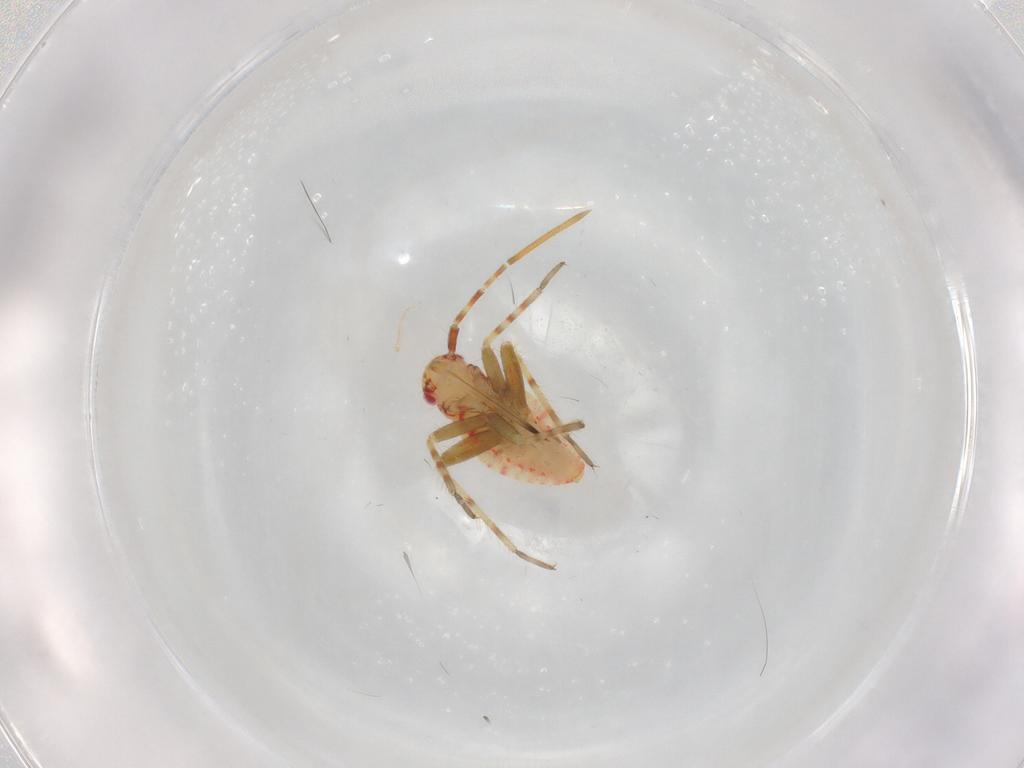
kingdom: Animalia
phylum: Arthropoda
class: Insecta
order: Hemiptera
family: Miridae
